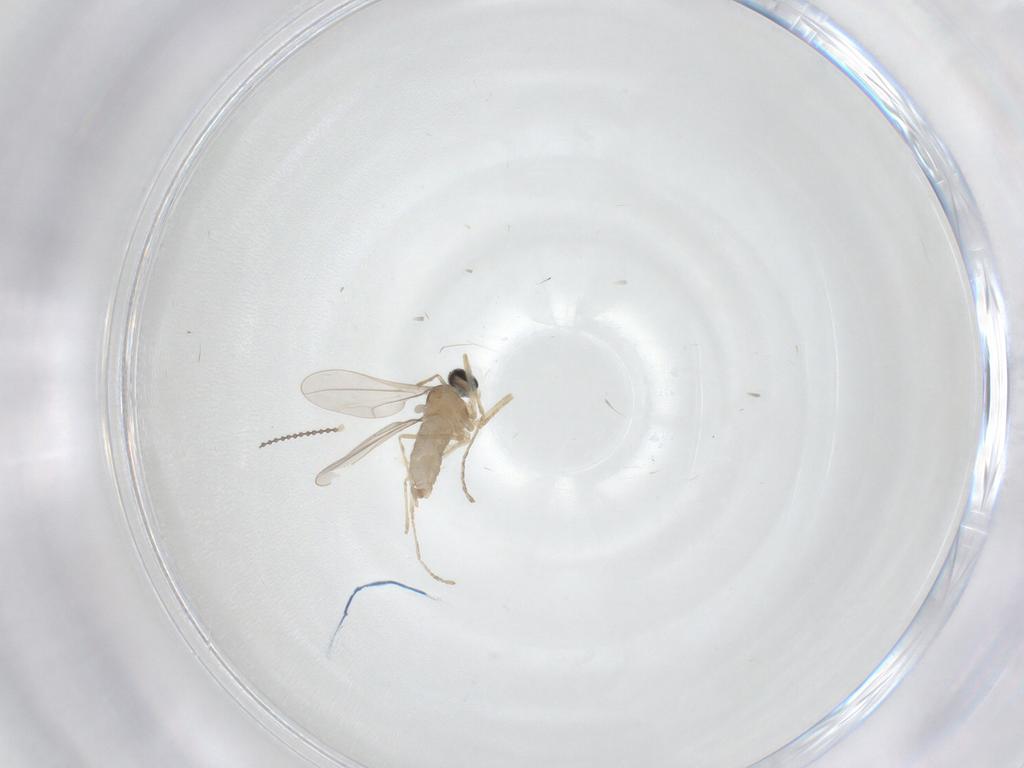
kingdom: Animalia
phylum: Arthropoda
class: Insecta
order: Diptera
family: Cecidomyiidae
